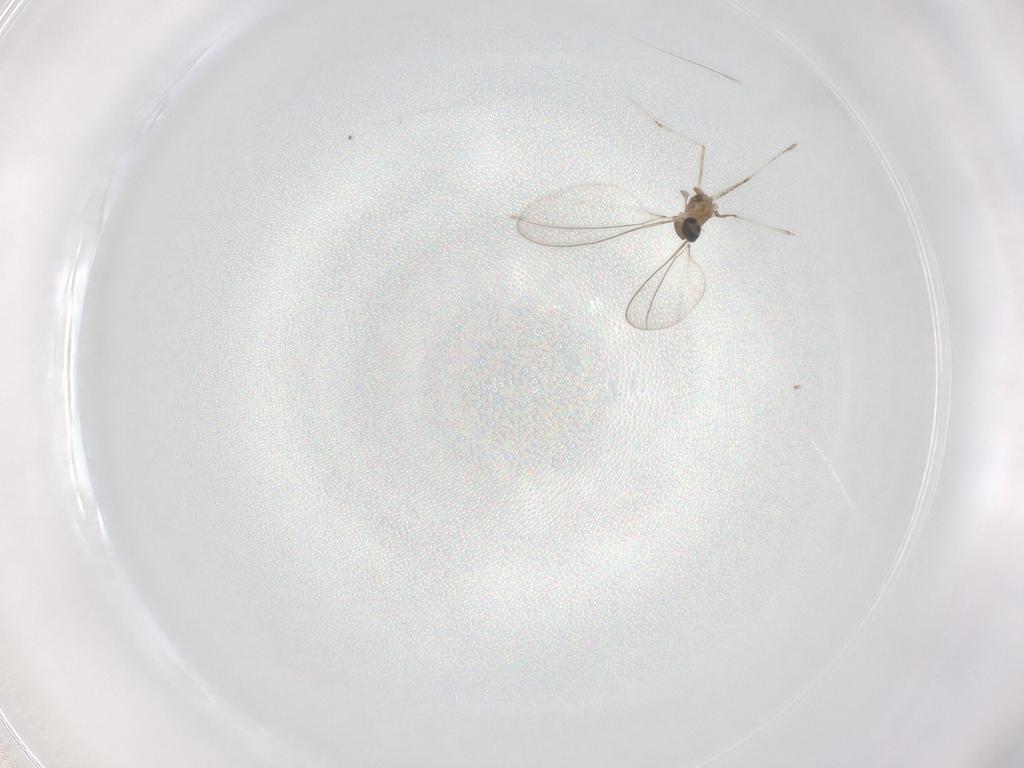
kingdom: Animalia
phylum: Arthropoda
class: Insecta
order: Diptera
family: Cecidomyiidae
